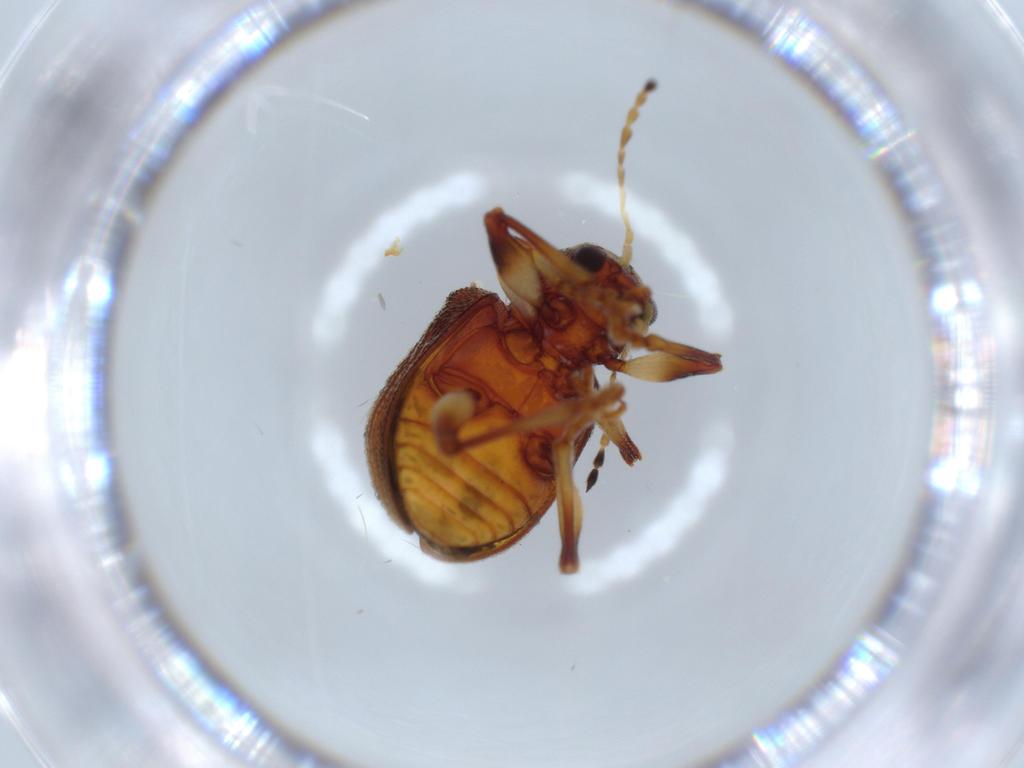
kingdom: Animalia
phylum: Arthropoda
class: Insecta
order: Coleoptera
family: Chrysomelidae
